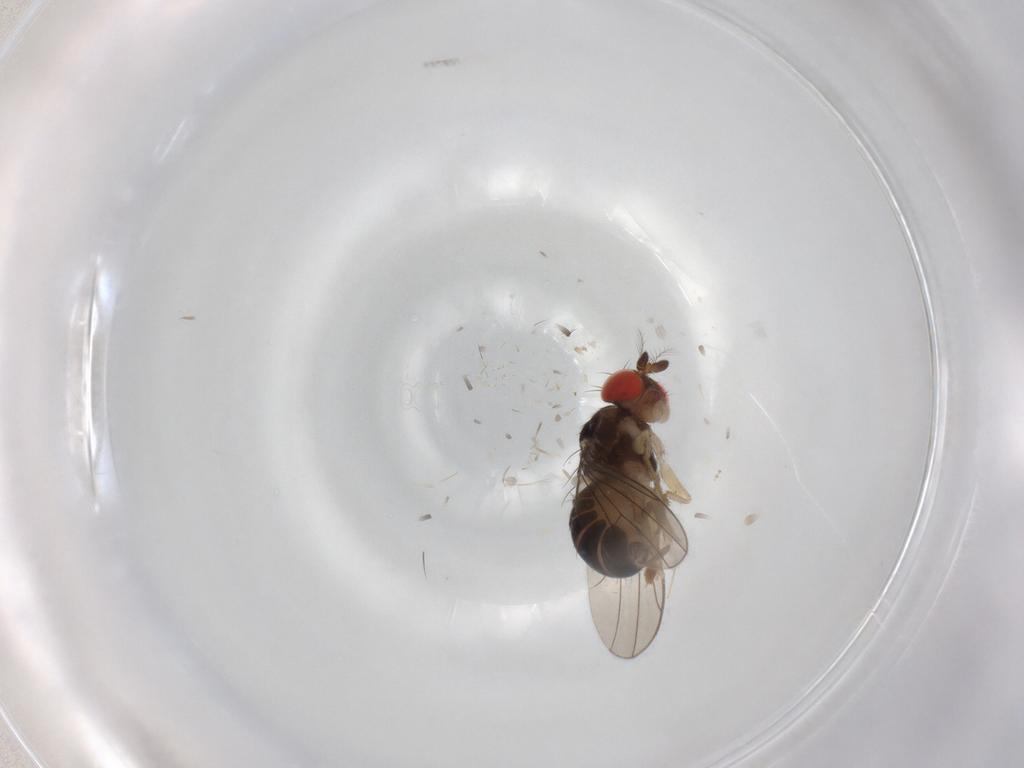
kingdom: Animalia
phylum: Arthropoda
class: Insecta
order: Diptera
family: Drosophilidae
